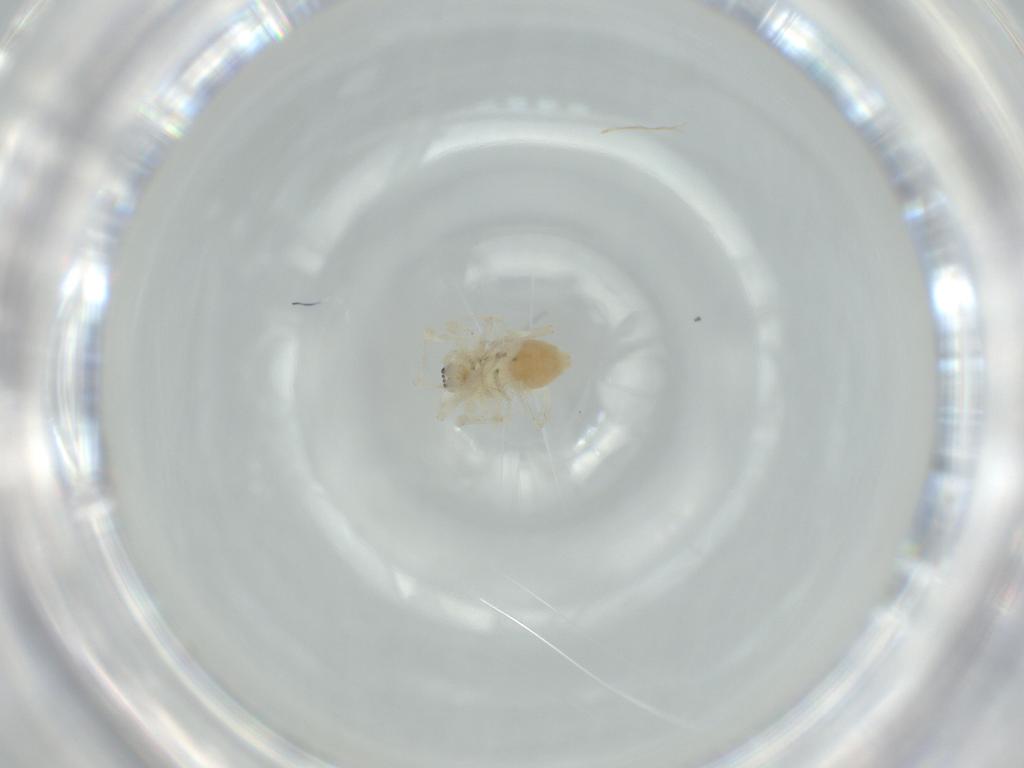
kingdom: Animalia
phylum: Arthropoda
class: Arachnida
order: Araneae
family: Anyphaenidae
